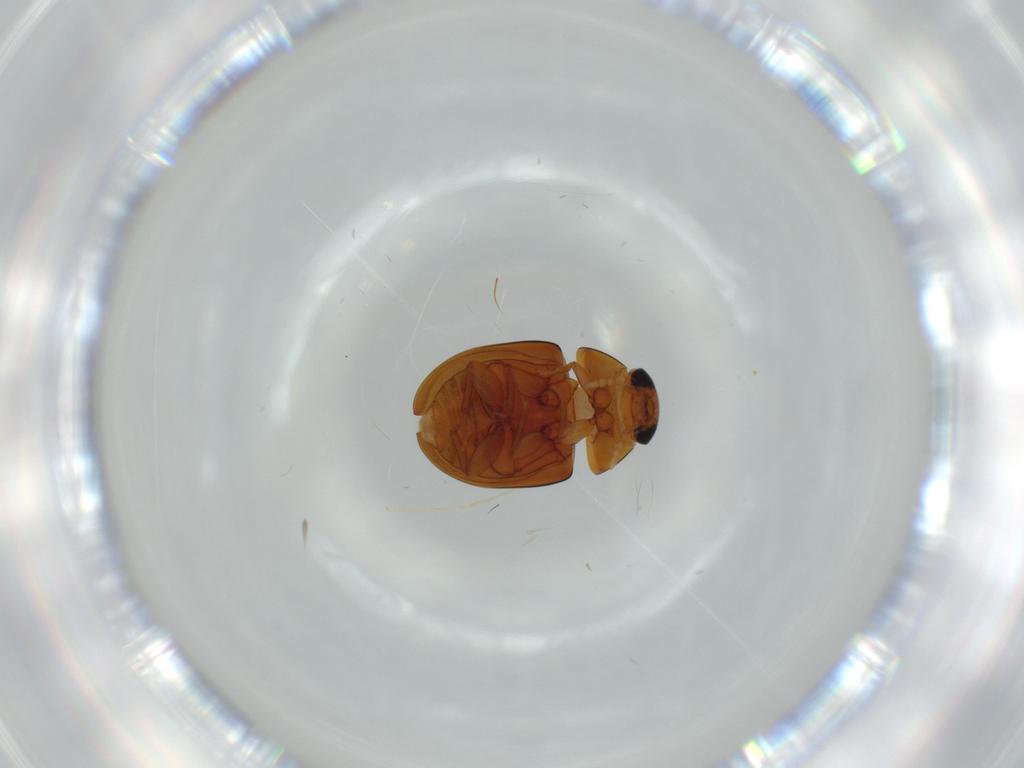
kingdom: Animalia
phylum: Arthropoda
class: Insecta
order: Coleoptera
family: Phalacridae
